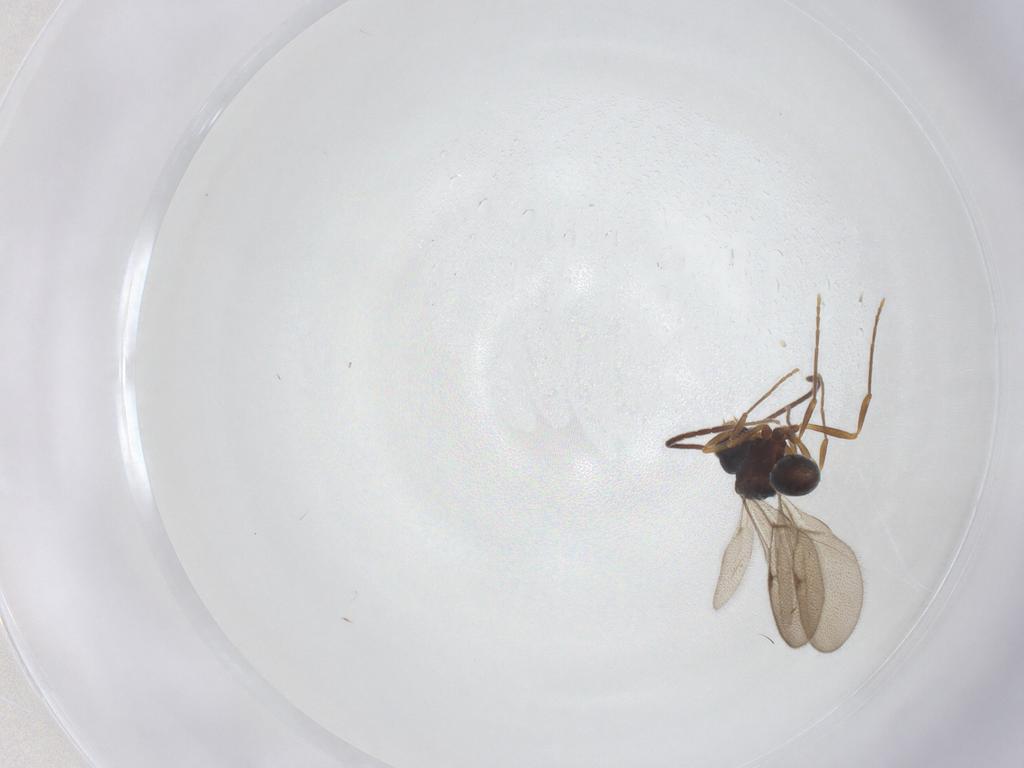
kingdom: Animalia
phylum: Arthropoda
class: Insecta
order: Hymenoptera
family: Formicidae
